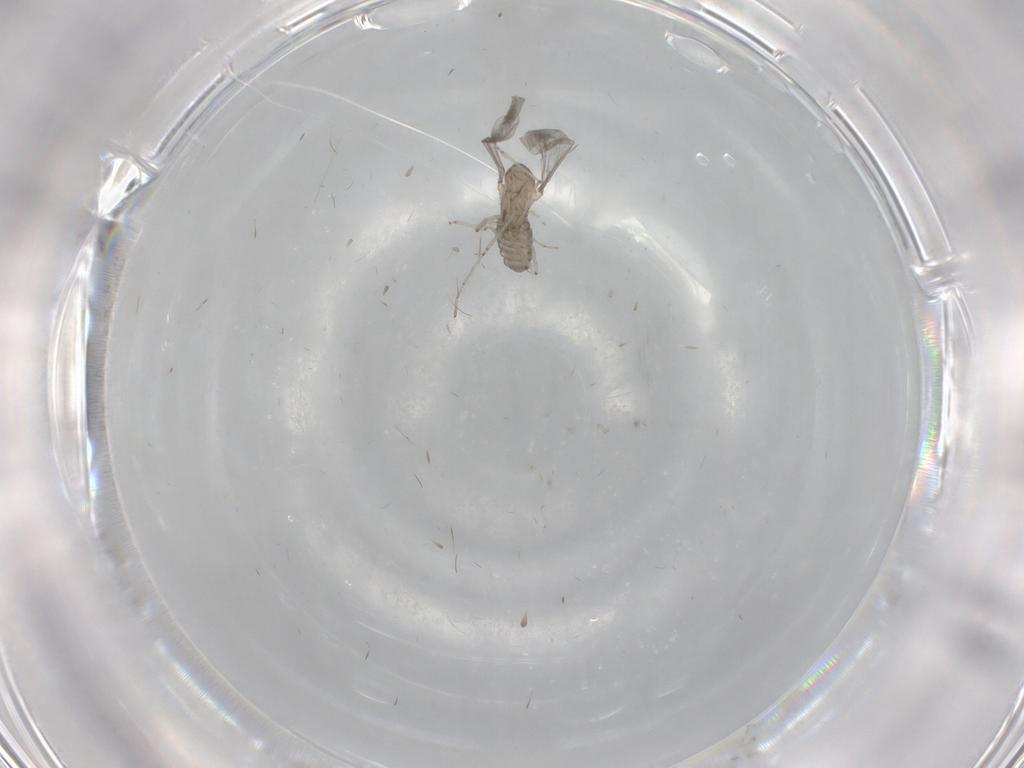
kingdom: Animalia
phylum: Arthropoda
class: Insecta
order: Diptera
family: Cecidomyiidae
